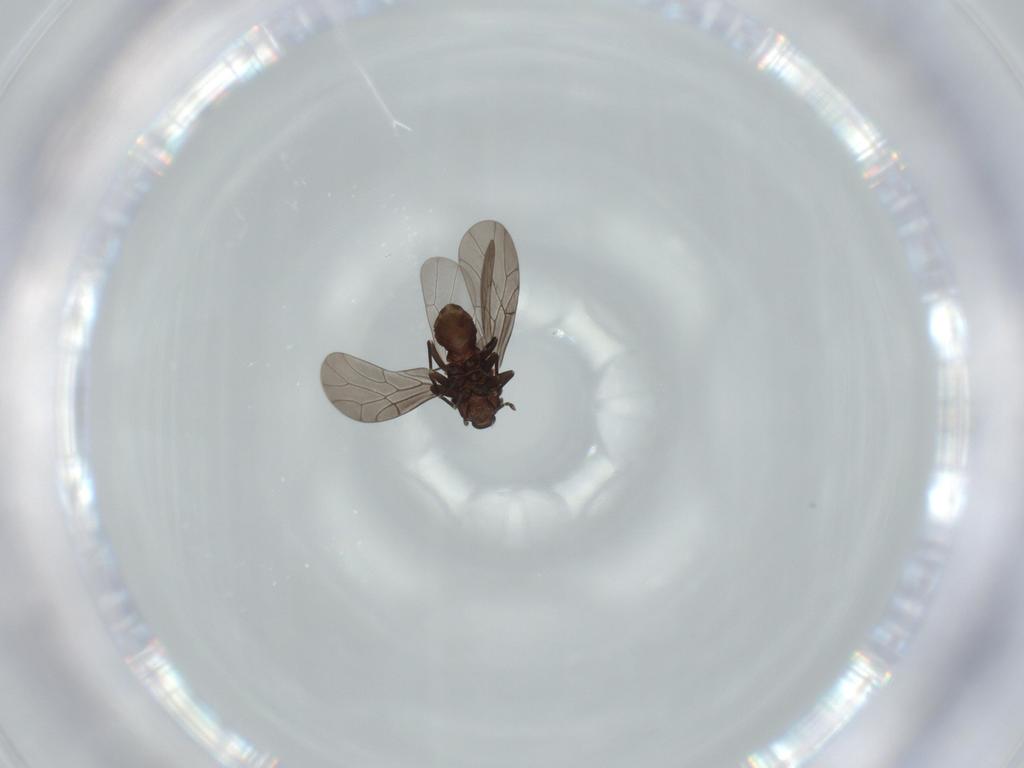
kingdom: Animalia
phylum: Arthropoda
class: Insecta
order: Psocodea
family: Lepidopsocidae
